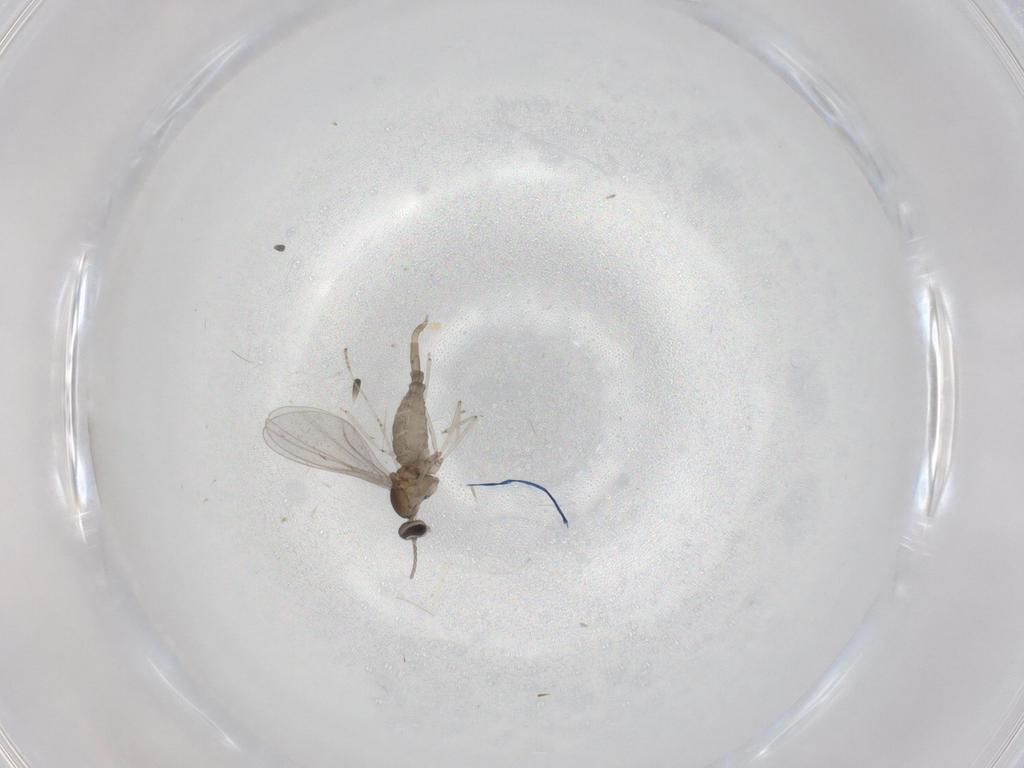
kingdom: Animalia
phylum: Arthropoda
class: Insecta
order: Diptera
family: Cecidomyiidae
